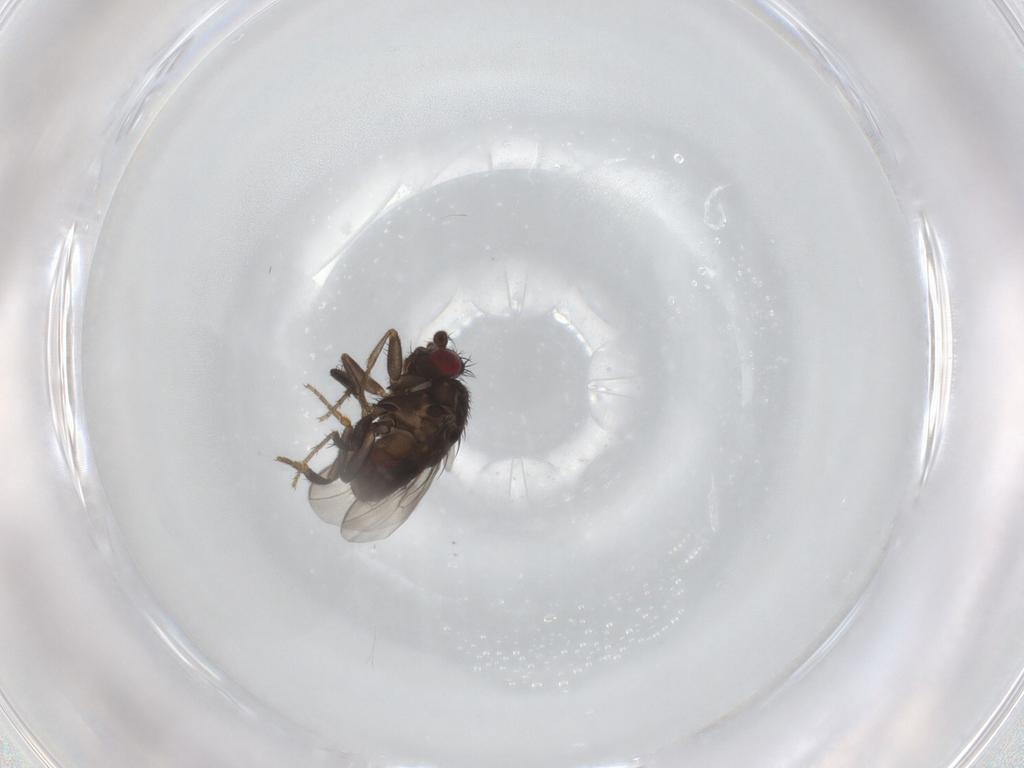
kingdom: Animalia
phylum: Arthropoda
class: Insecta
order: Diptera
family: Sphaeroceridae
